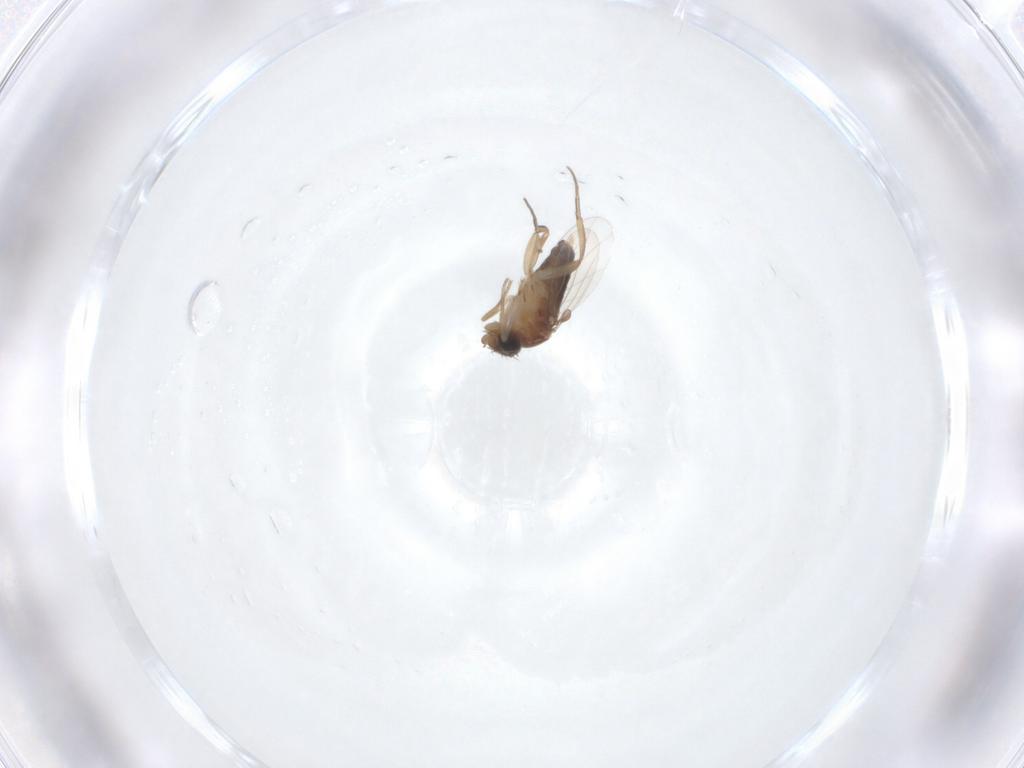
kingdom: Animalia
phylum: Arthropoda
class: Insecta
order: Diptera
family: Phoridae
